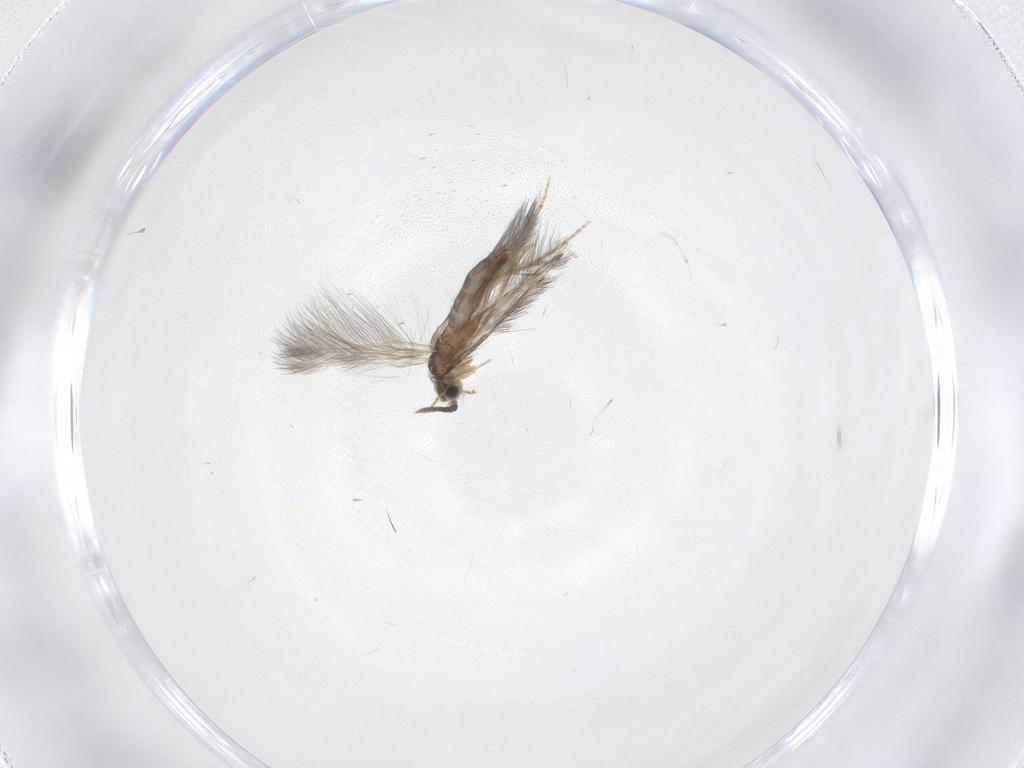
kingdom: Animalia
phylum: Arthropoda
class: Insecta
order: Trichoptera
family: Hydroptilidae
